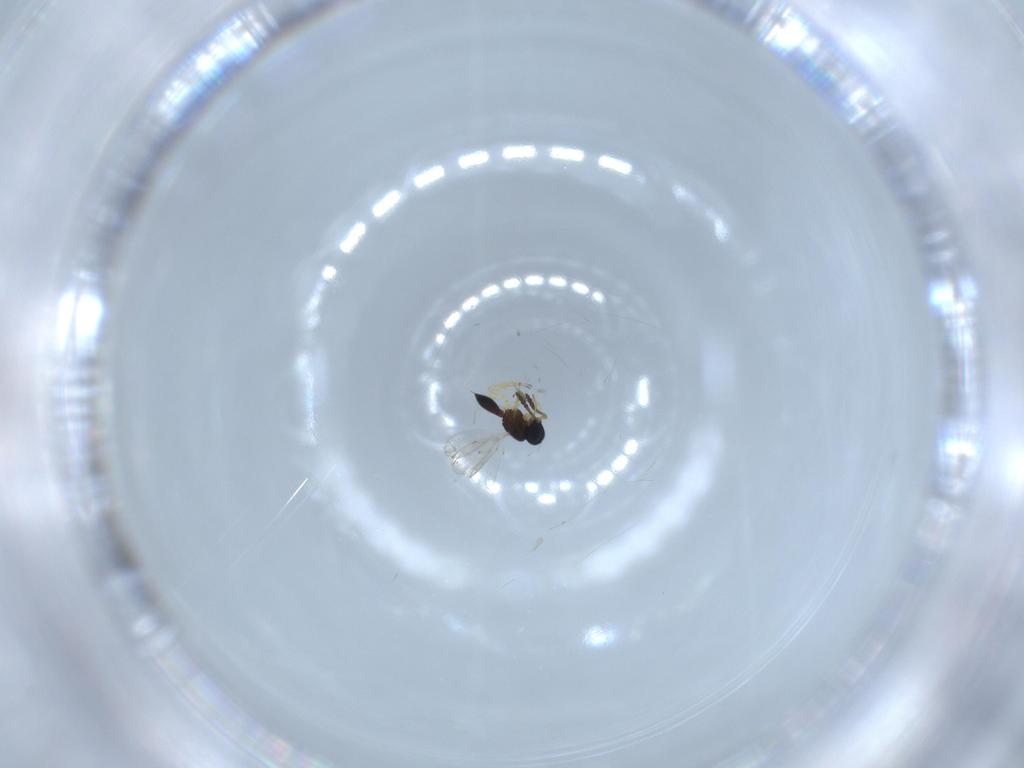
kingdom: Animalia
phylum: Arthropoda
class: Insecta
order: Hymenoptera
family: Scelionidae
